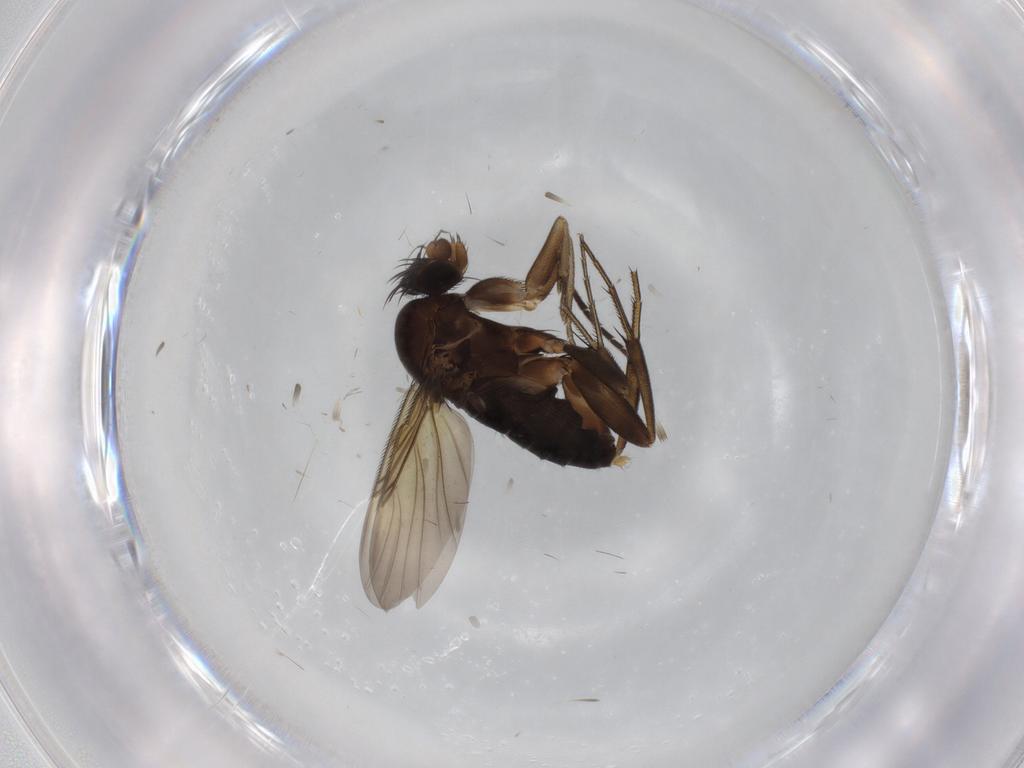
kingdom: Animalia
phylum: Arthropoda
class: Insecta
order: Diptera
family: Phoridae
